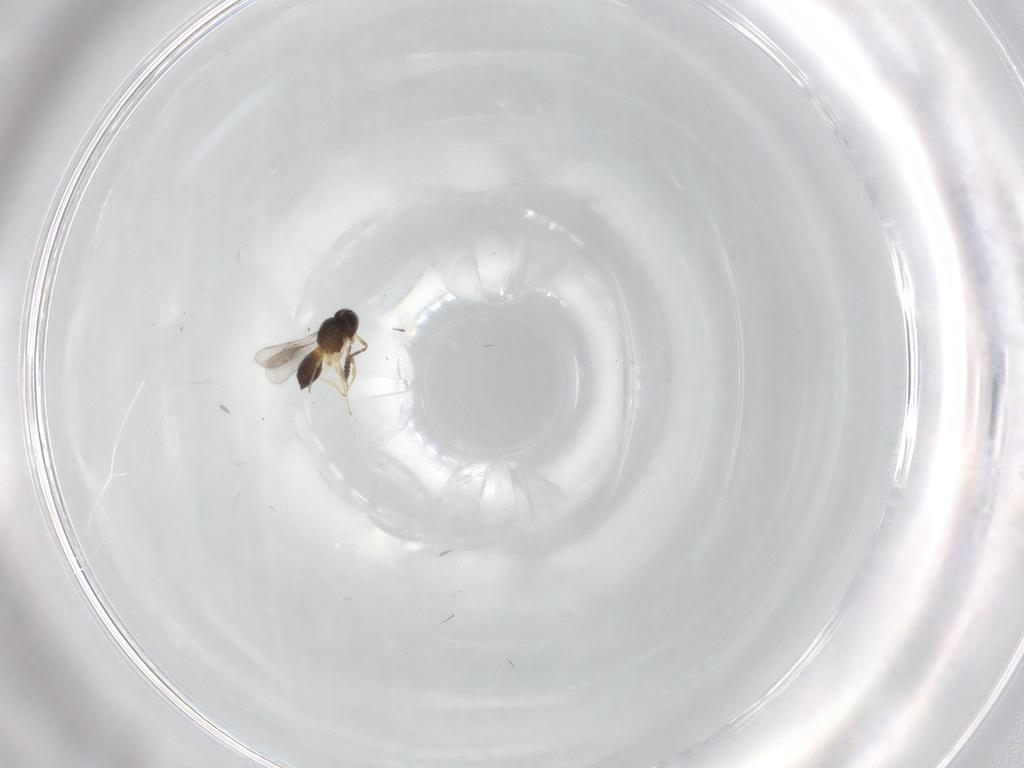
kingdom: Animalia
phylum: Arthropoda
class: Insecta
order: Hymenoptera
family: Scelionidae
